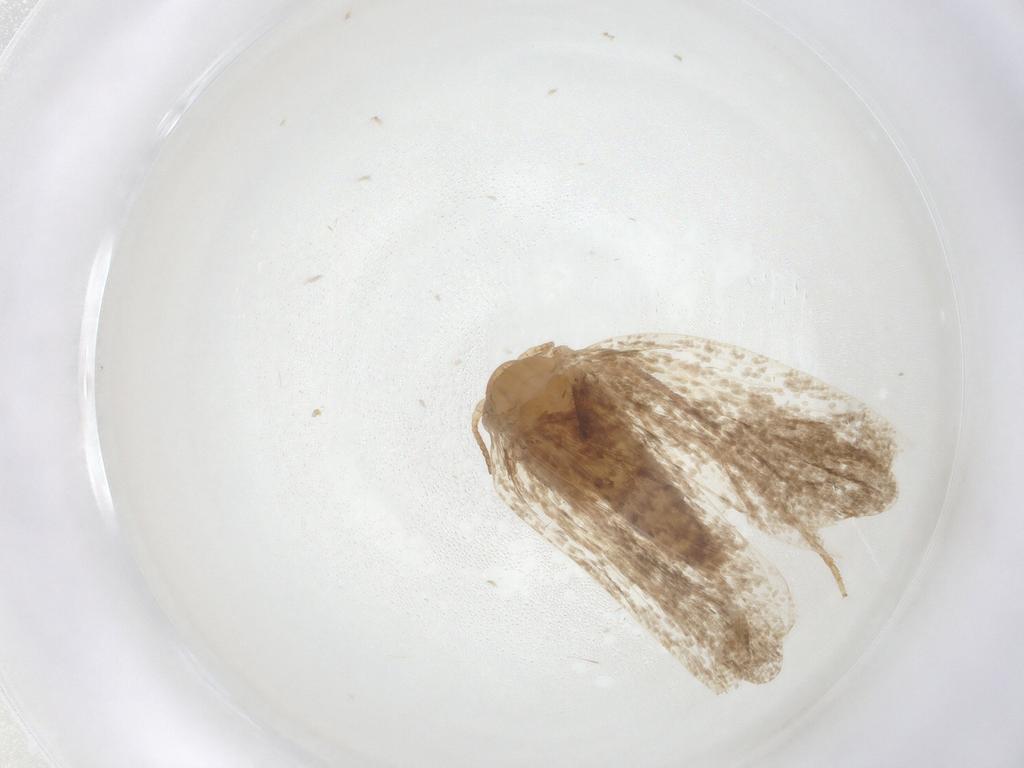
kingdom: Animalia
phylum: Arthropoda
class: Insecta
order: Lepidoptera
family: Tineidae
